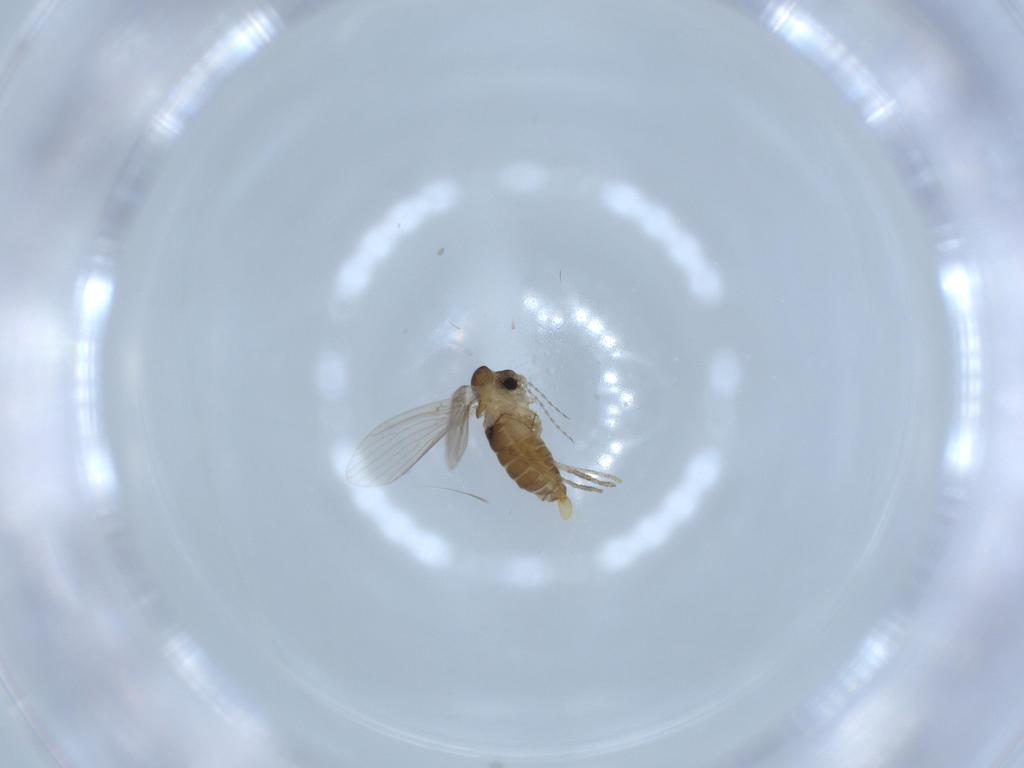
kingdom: Animalia
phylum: Arthropoda
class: Insecta
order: Diptera
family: Psychodidae
